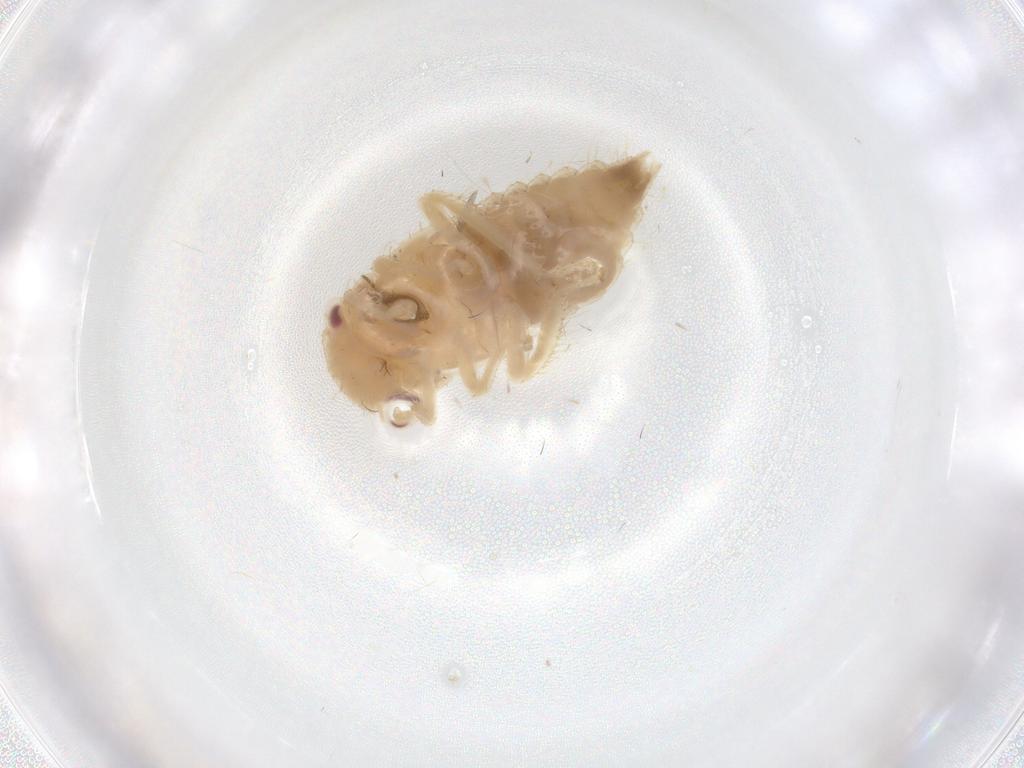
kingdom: Animalia
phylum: Arthropoda
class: Insecta
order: Hemiptera
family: Cicadellidae
